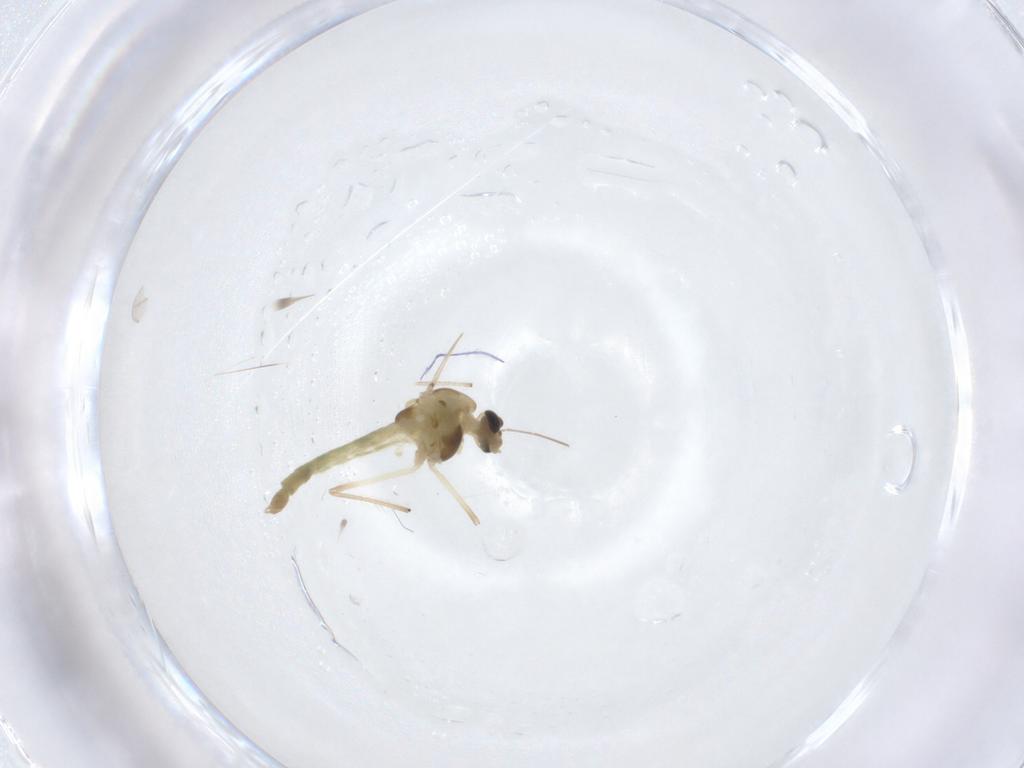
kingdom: Animalia
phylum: Arthropoda
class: Insecta
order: Diptera
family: Chironomidae
